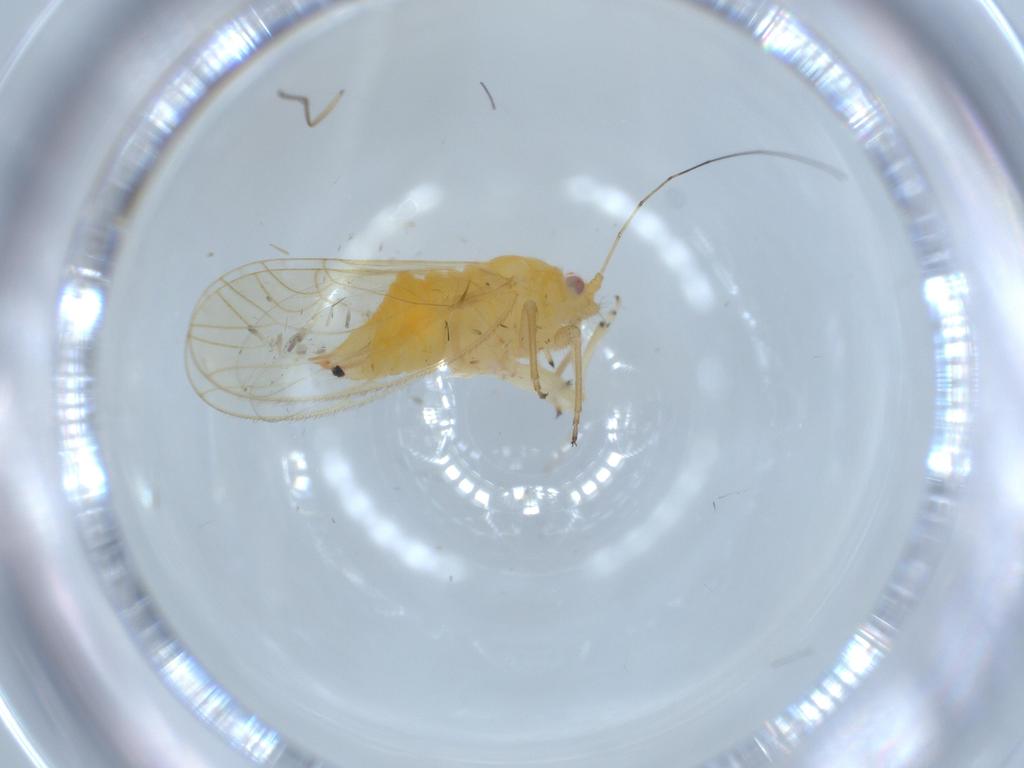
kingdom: Animalia
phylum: Arthropoda
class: Insecta
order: Hemiptera
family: Psyllidae
